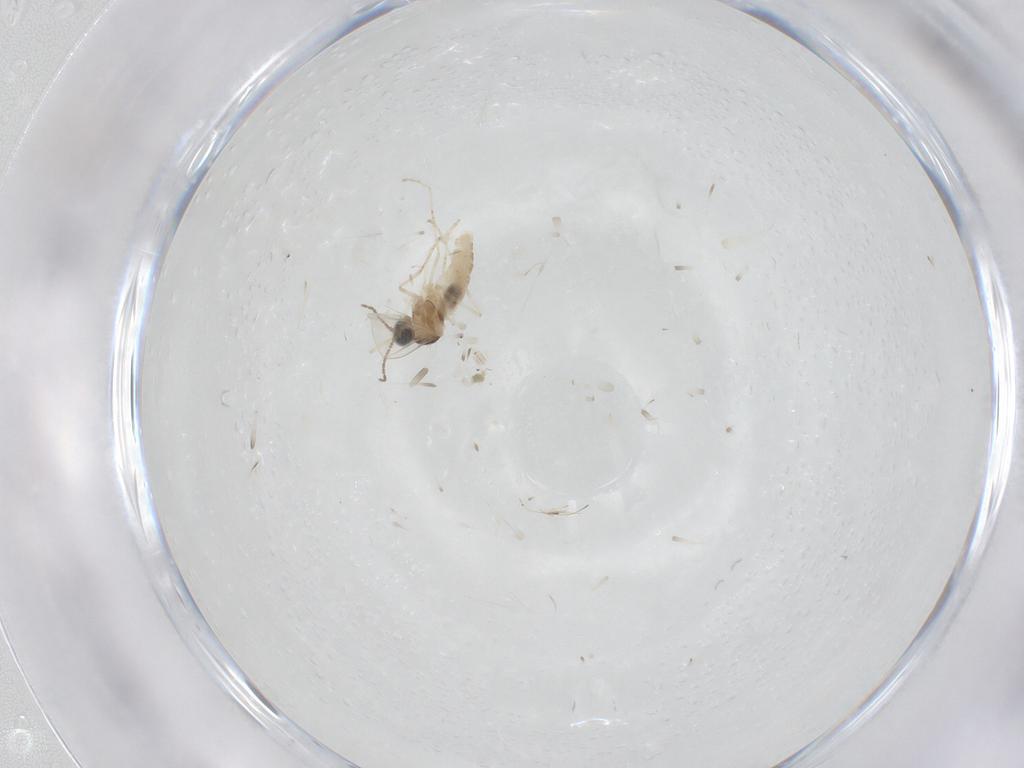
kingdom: Animalia
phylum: Arthropoda
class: Insecta
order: Diptera
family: Cecidomyiidae
